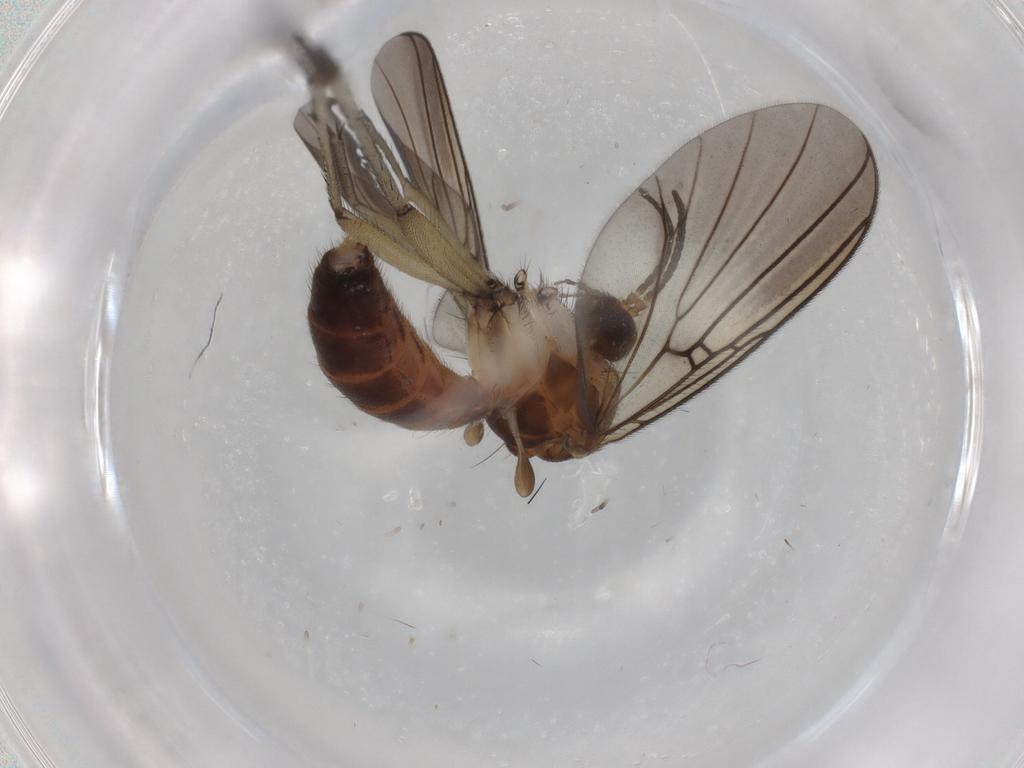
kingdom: Animalia
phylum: Arthropoda
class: Insecta
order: Diptera
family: Sciaridae
